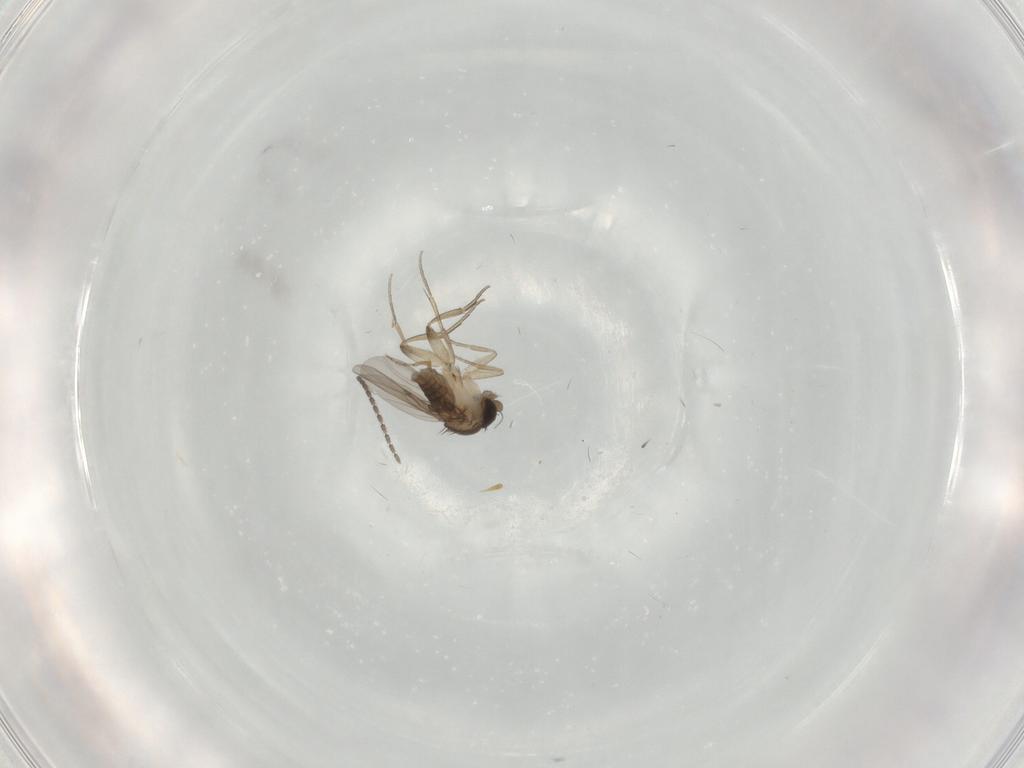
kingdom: Animalia
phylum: Arthropoda
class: Insecta
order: Diptera
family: Phoridae
